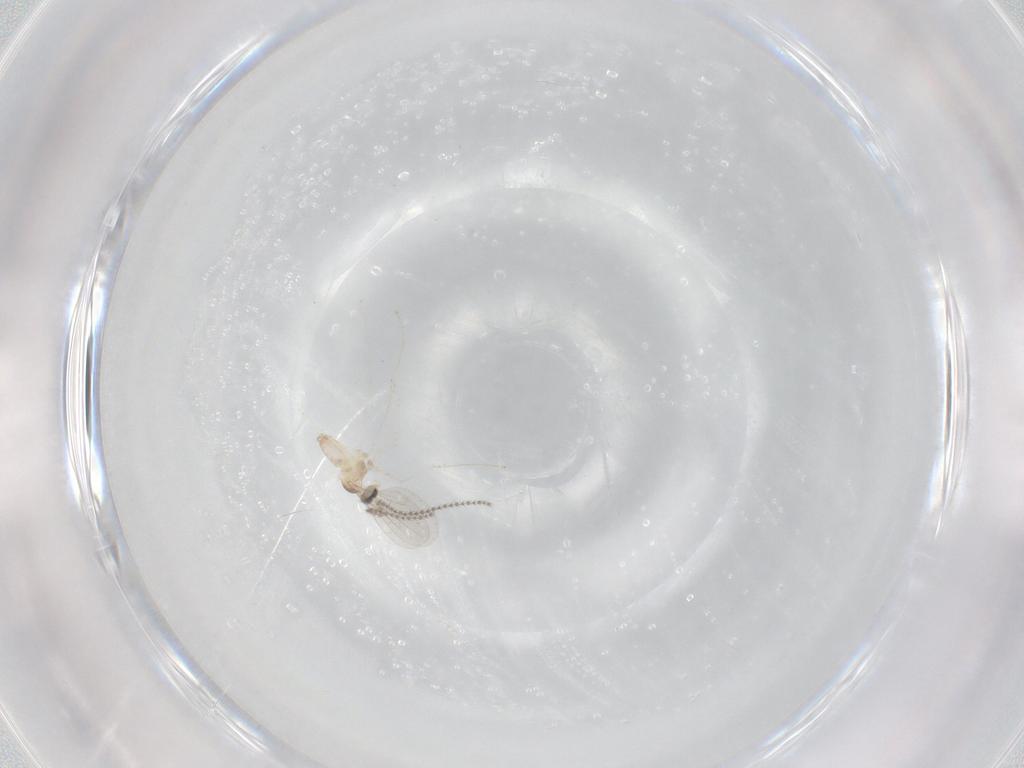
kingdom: Animalia
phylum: Arthropoda
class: Insecta
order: Diptera
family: Cecidomyiidae
